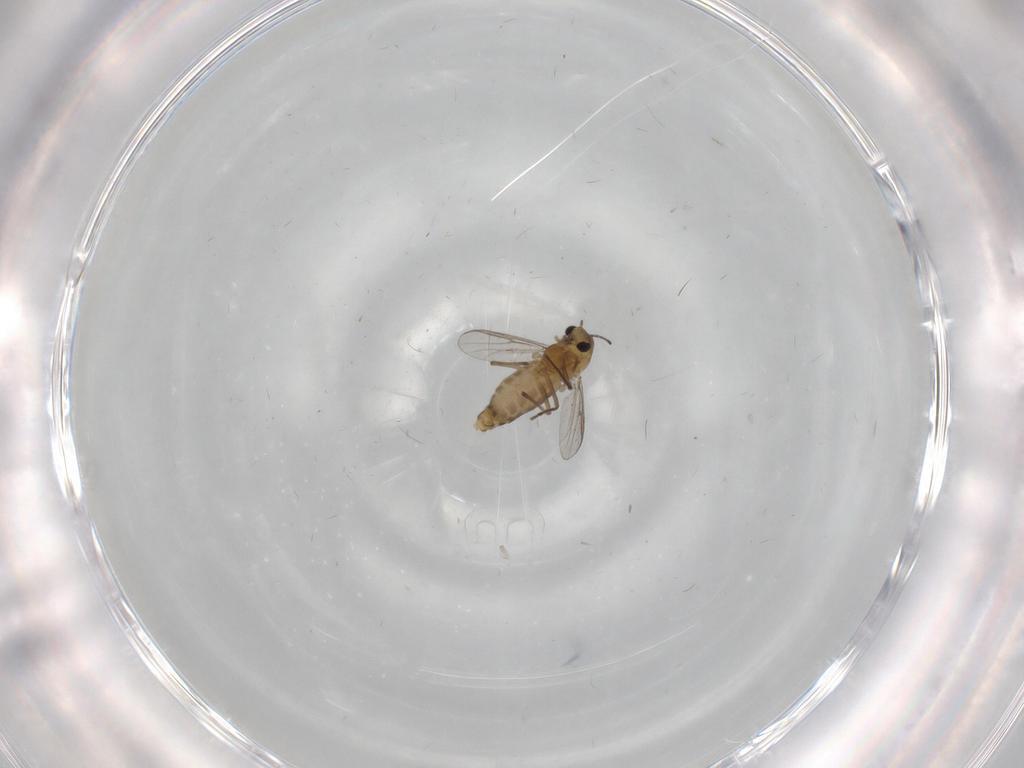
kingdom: Animalia
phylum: Arthropoda
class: Insecta
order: Diptera
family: Chironomidae
